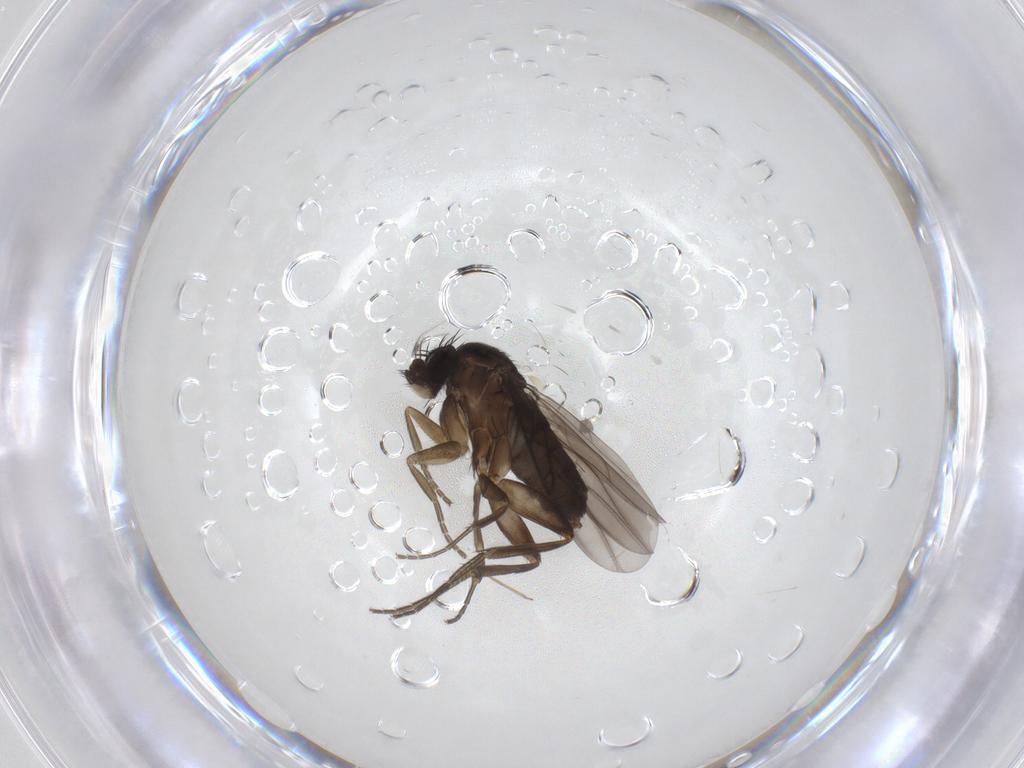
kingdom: Animalia
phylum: Arthropoda
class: Insecta
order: Diptera
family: Phoridae
